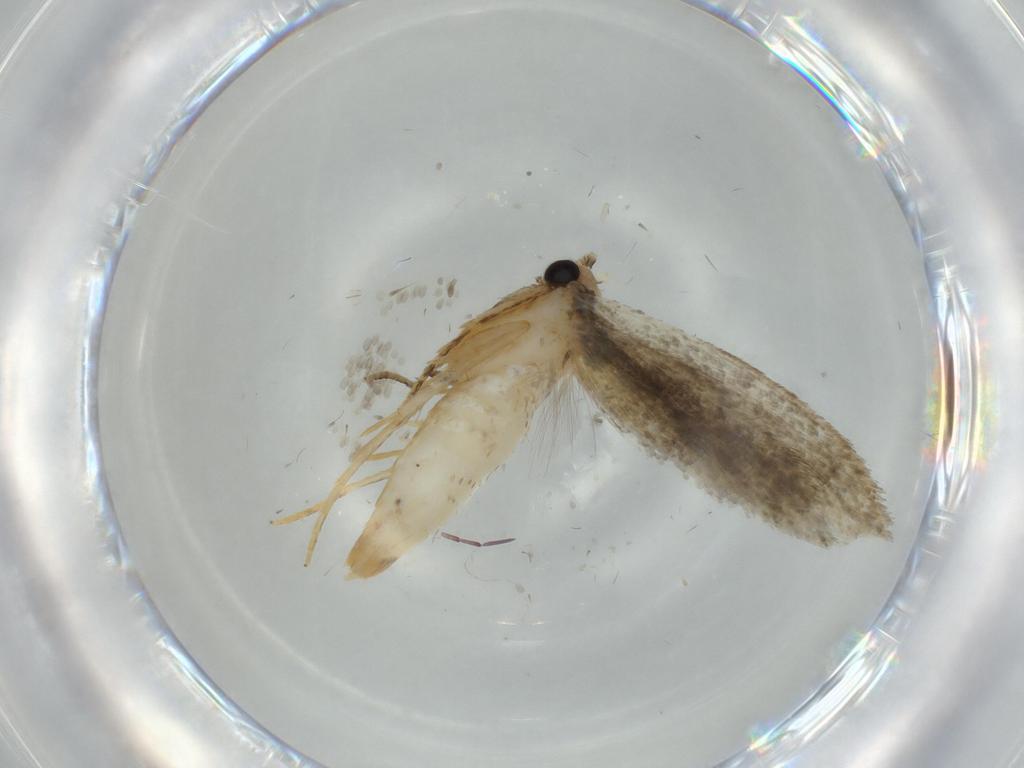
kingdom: Animalia
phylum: Arthropoda
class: Insecta
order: Lepidoptera
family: Tineidae
